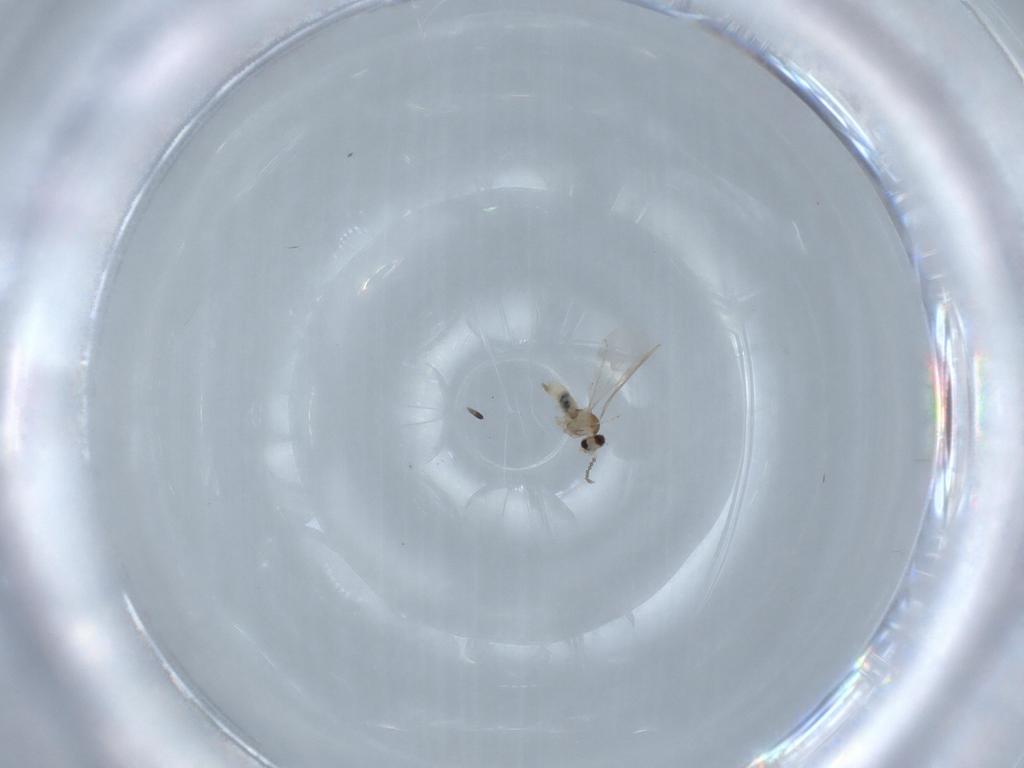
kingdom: Animalia
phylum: Arthropoda
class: Insecta
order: Diptera
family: Cecidomyiidae
